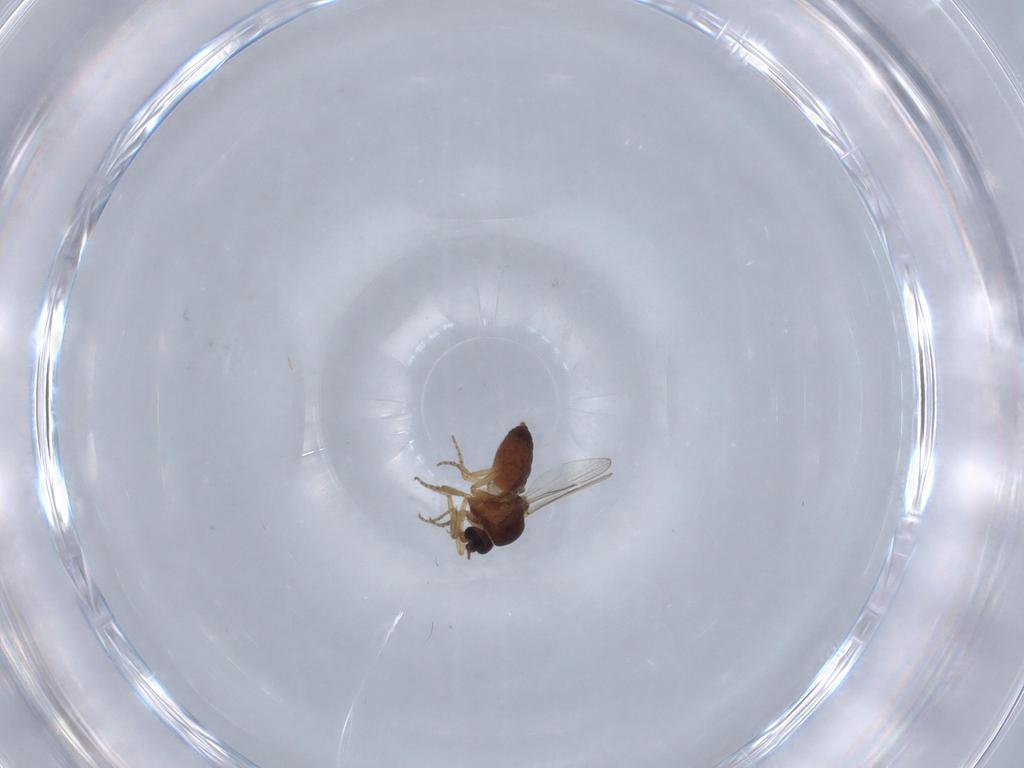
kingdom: Animalia
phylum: Arthropoda
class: Insecta
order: Diptera
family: Ceratopogonidae
